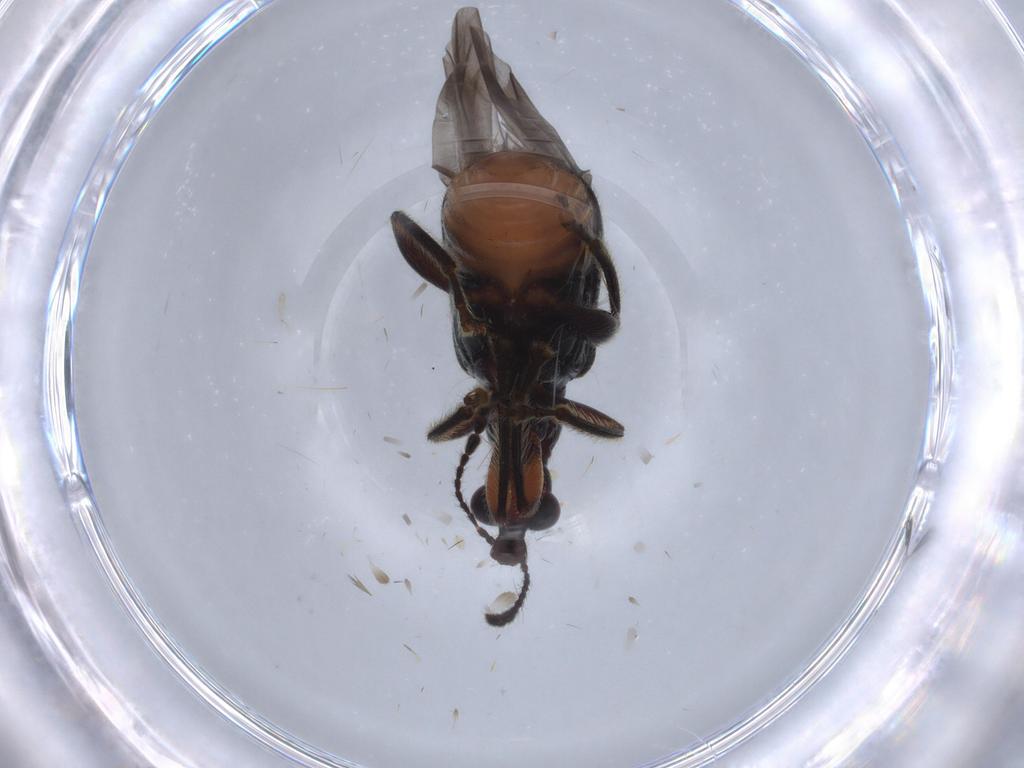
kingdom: Animalia
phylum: Arthropoda
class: Insecta
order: Coleoptera
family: Attelabidae
